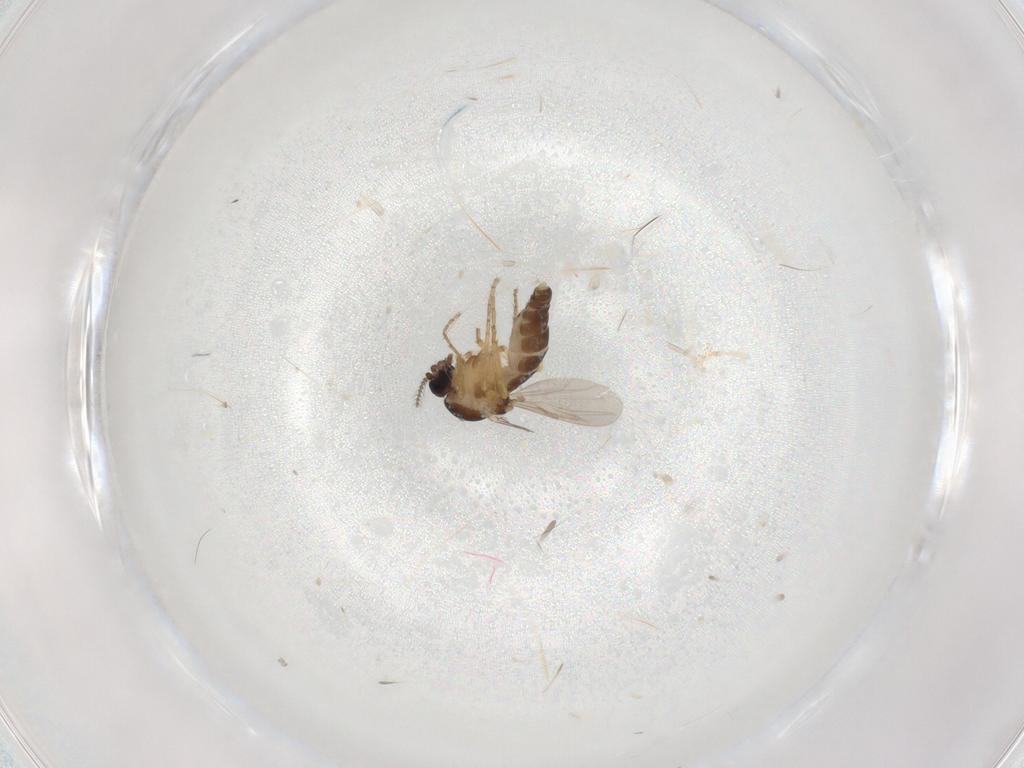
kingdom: Animalia
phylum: Arthropoda
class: Insecta
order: Diptera
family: Ceratopogonidae
